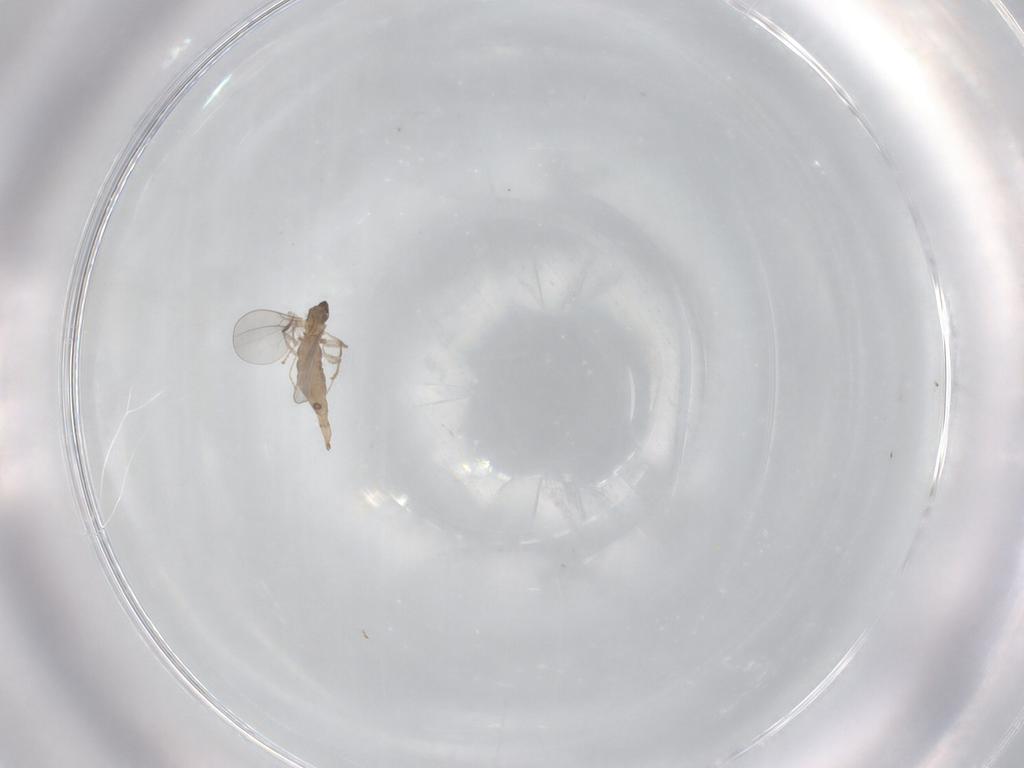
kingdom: Animalia
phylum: Arthropoda
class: Insecta
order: Diptera
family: Cecidomyiidae
